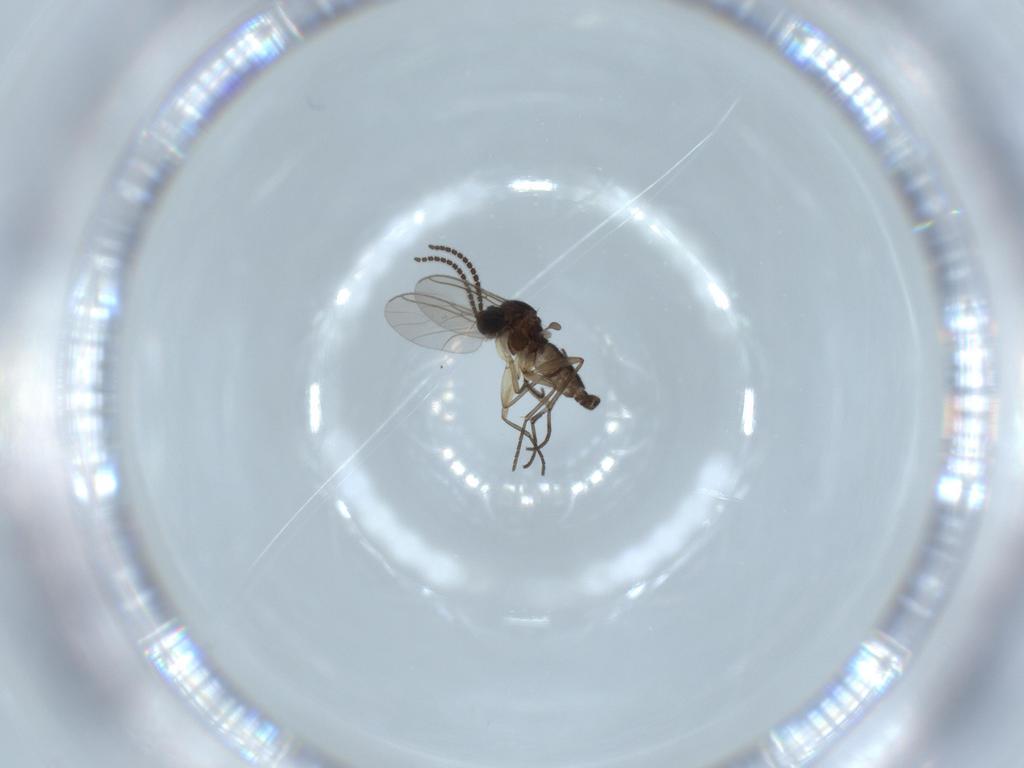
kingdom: Animalia
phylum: Arthropoda
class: Insecta
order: Diptera
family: Sciaridae
